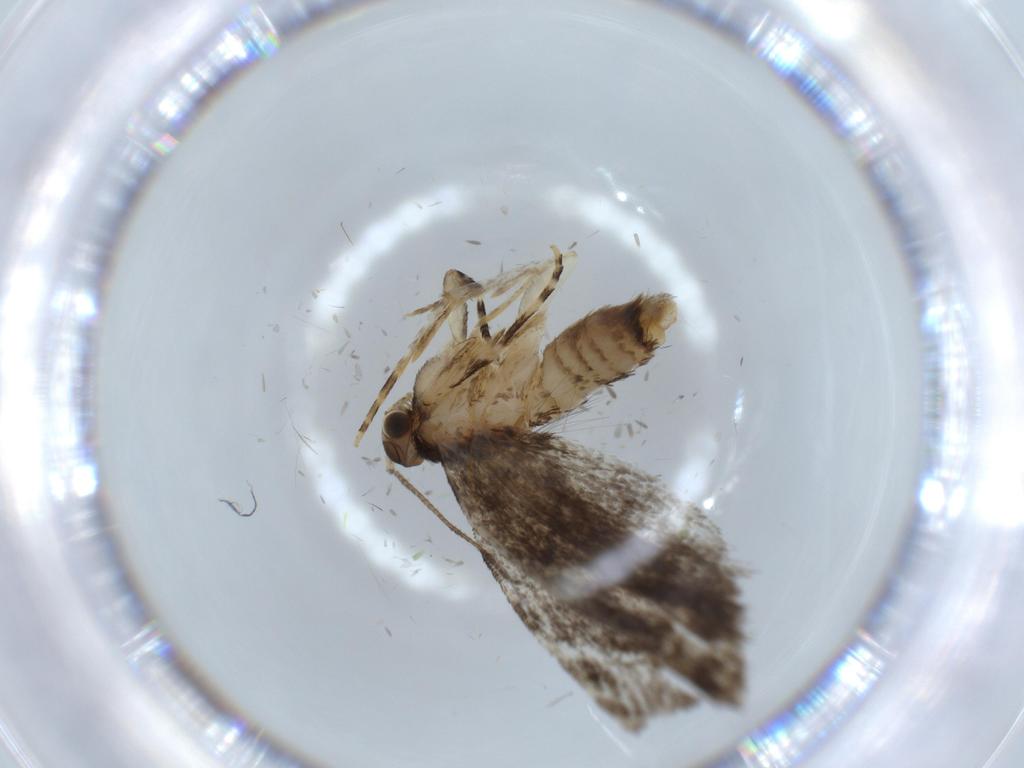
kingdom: Animalia
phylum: Arthropoda
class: Insecta
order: Lepidoptera
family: Tineidae
